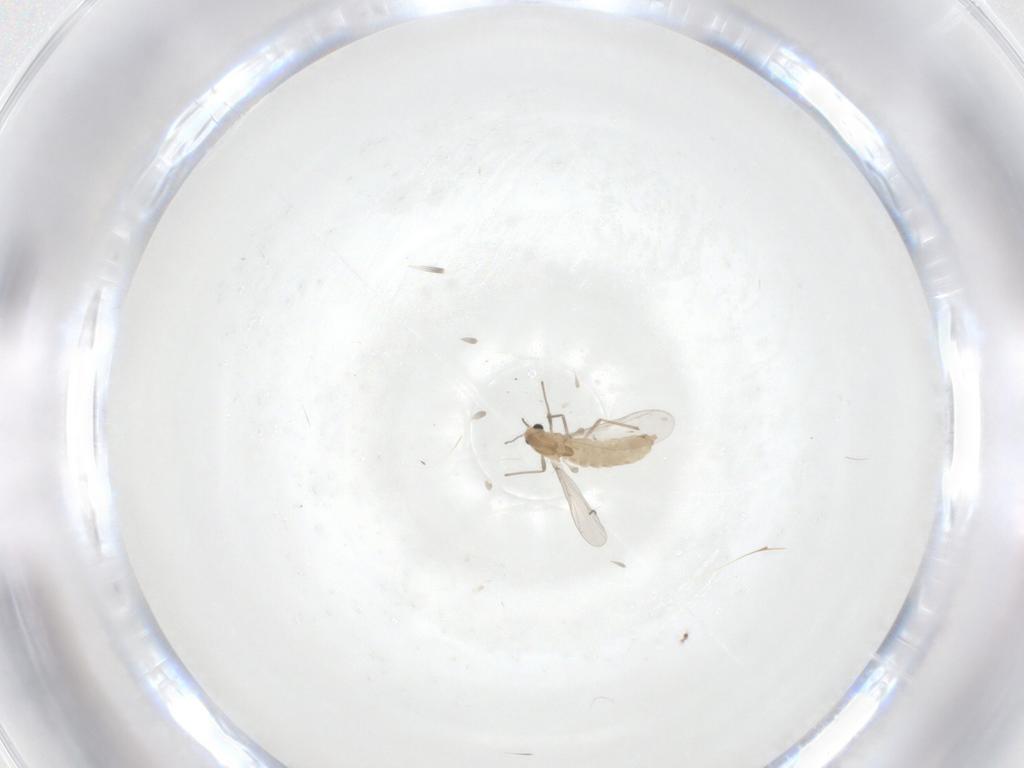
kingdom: Animalia
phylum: Arthropoda
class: Insecta
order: Diptera
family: Chironomidae
